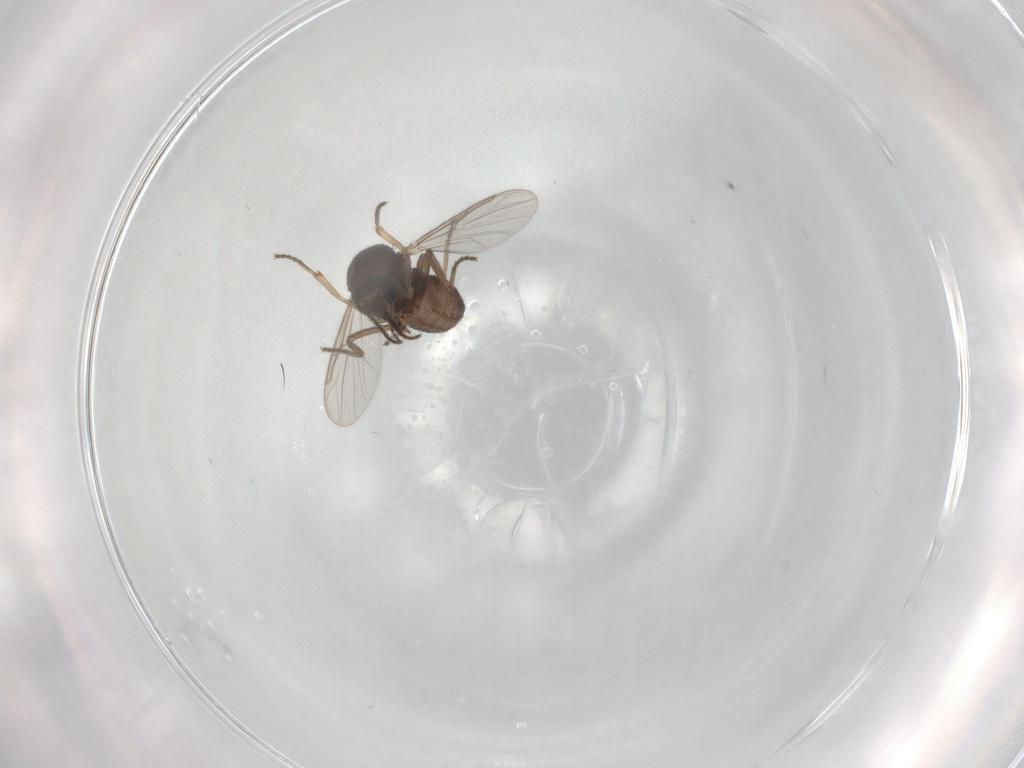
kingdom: Animalia
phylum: Arthropoda
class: Insecta
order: Diptera
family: Ceratopogonidae
